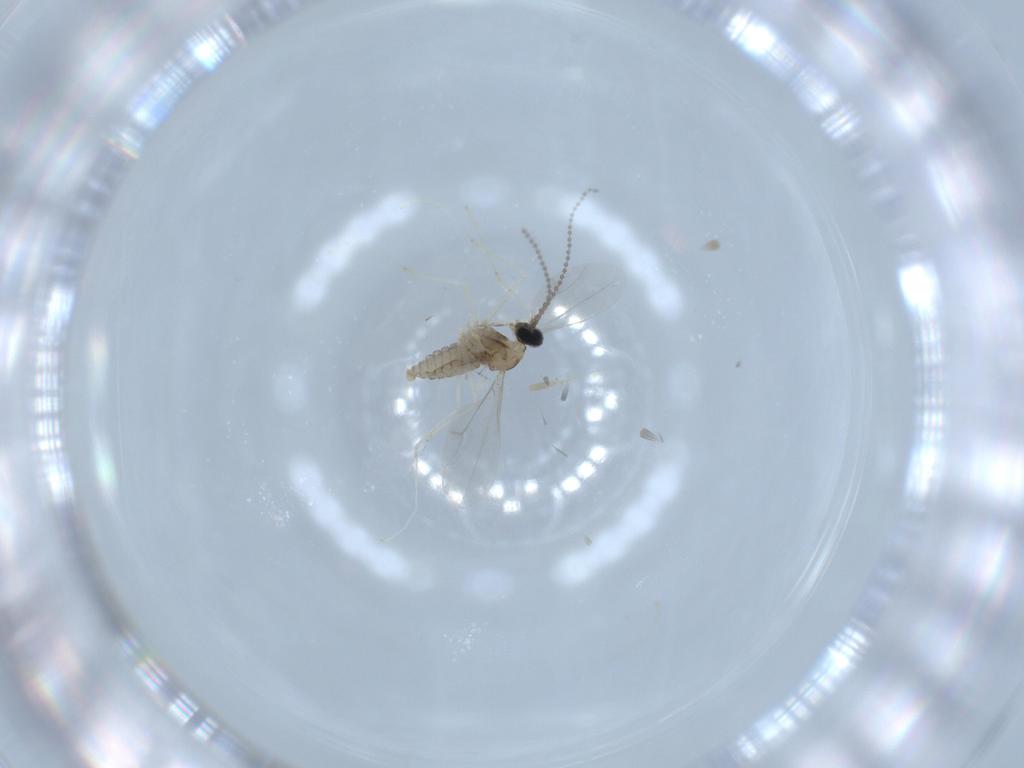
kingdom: Animalia
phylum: Arthropoda
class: Insecta
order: Diptera
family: Cecidomyiidae
